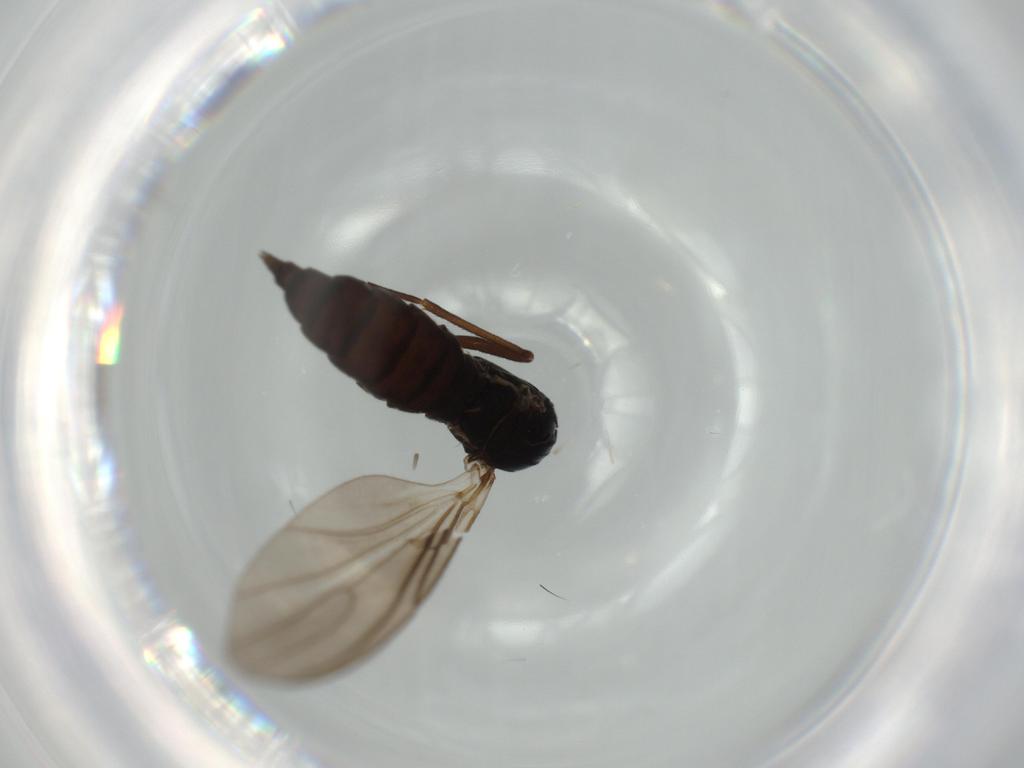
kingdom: Animalia
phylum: Arthropoda
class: Insecta
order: Diptera
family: Sciaridae
